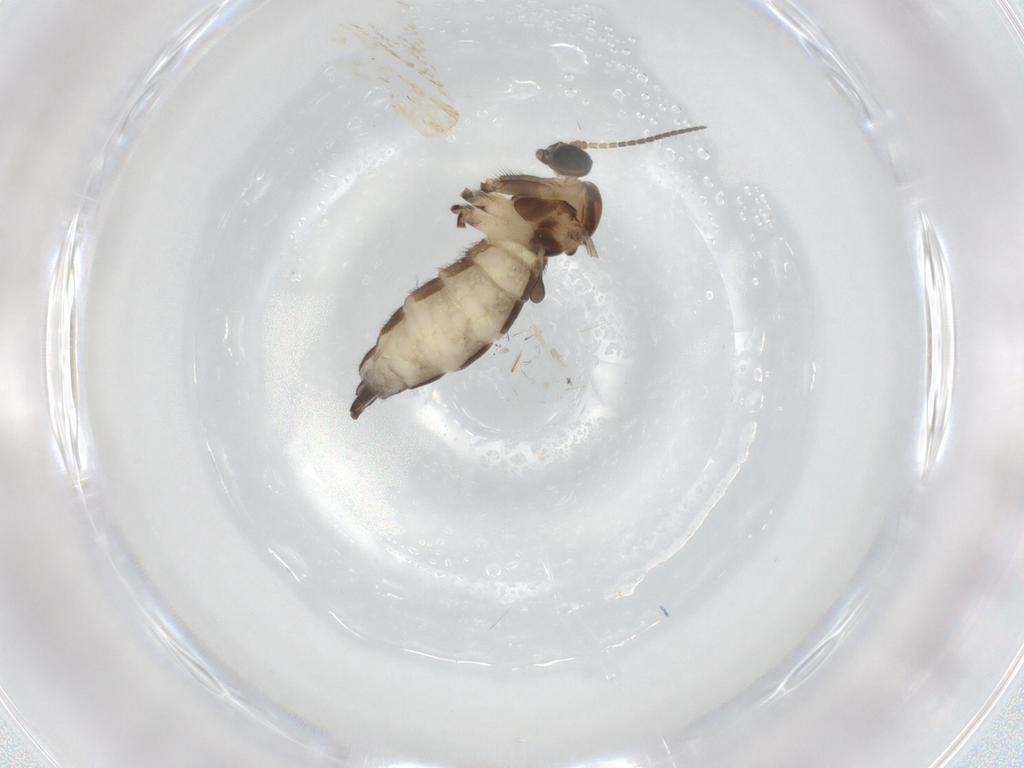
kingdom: Animalia
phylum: Arthropoda
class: Insecta
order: Diptera
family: Sciaridae
